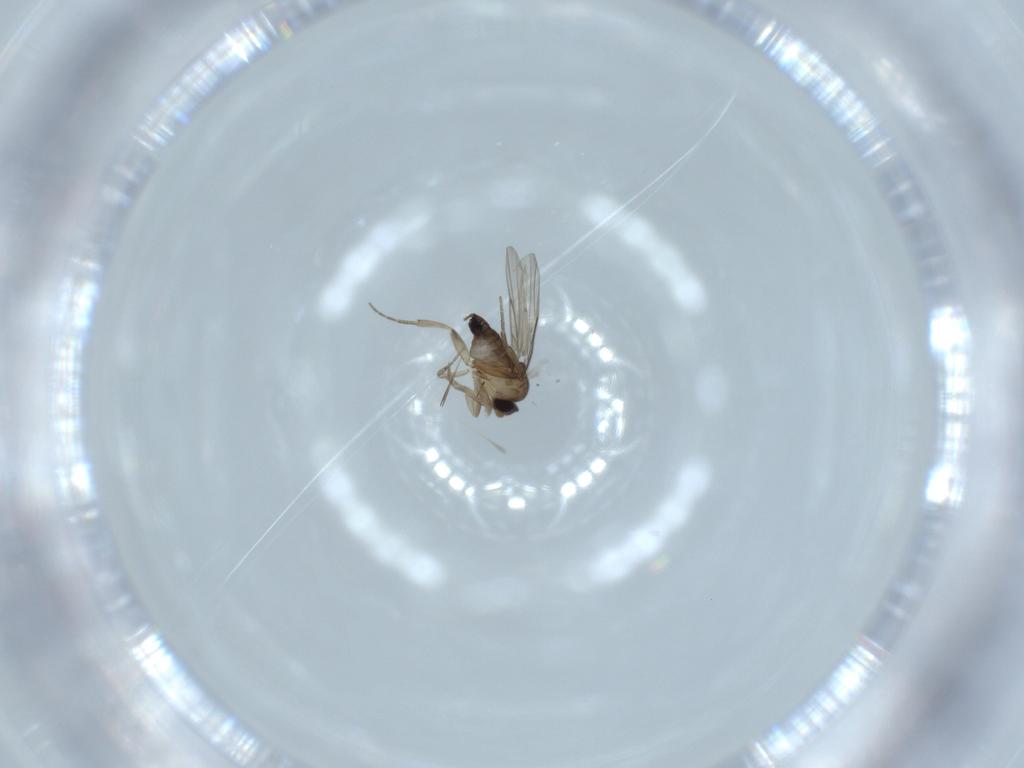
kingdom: Animalia
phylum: Arthropoda
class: Insecta
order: Diptera
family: Phoridae
